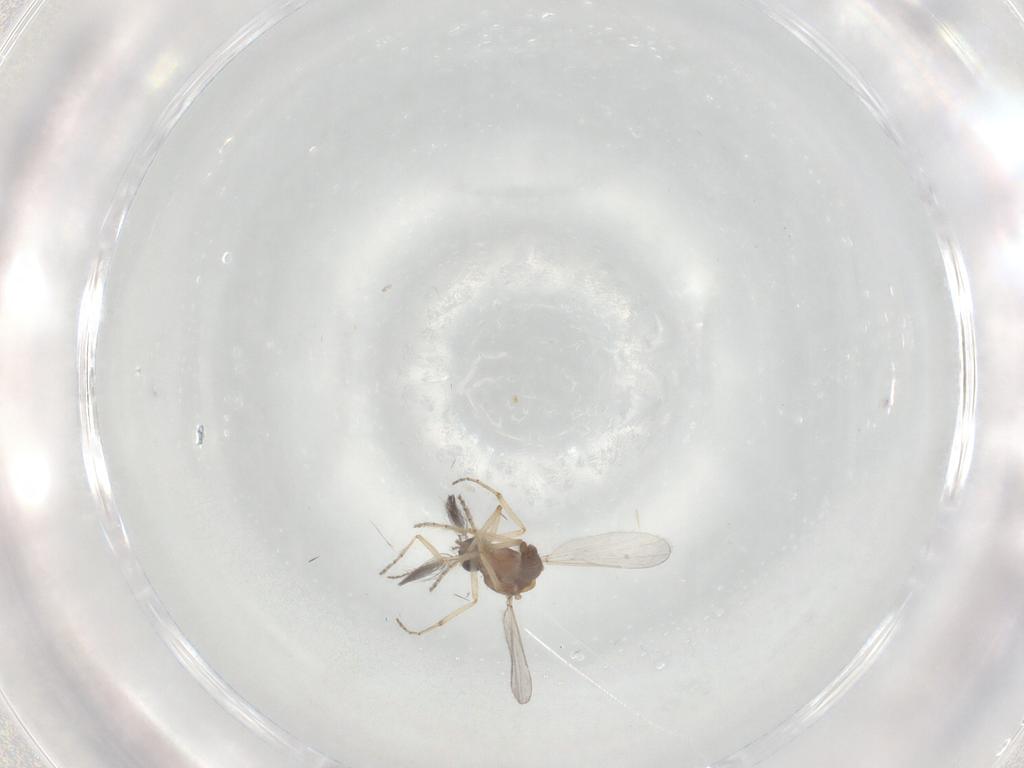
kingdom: Animalia
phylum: Arthropoda
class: Insecta
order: Diptera
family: Ceratopogonidae
